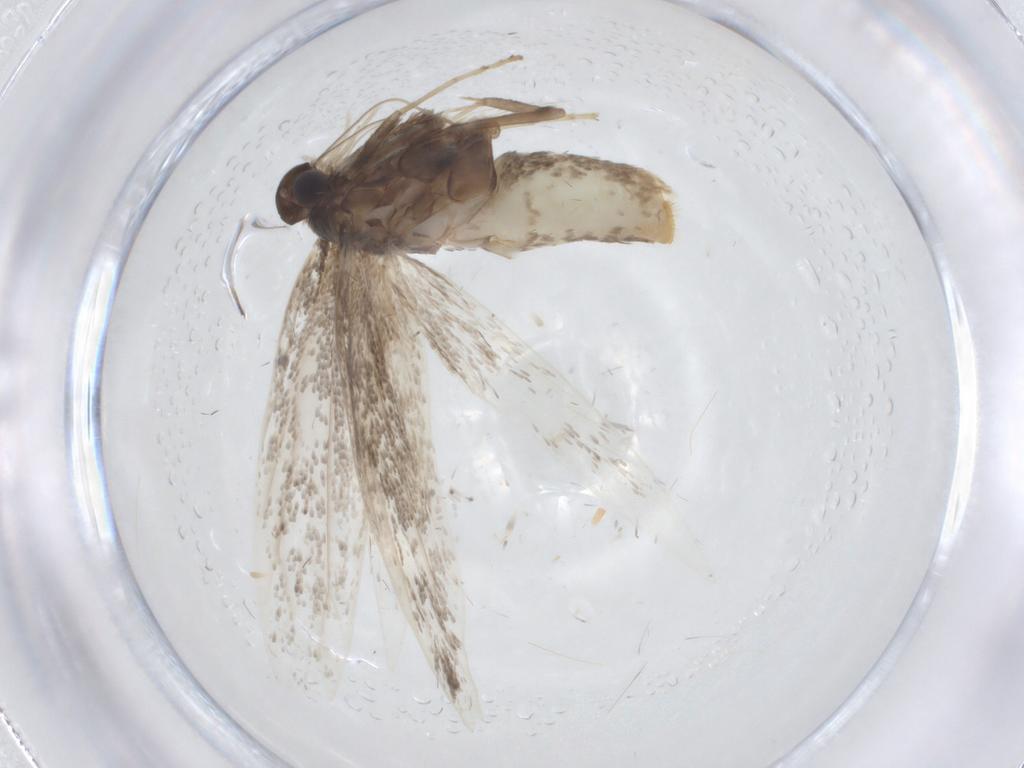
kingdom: Animalia
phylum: Arthropoda
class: Insecta
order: Lepidoptera
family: Gracillariidae
